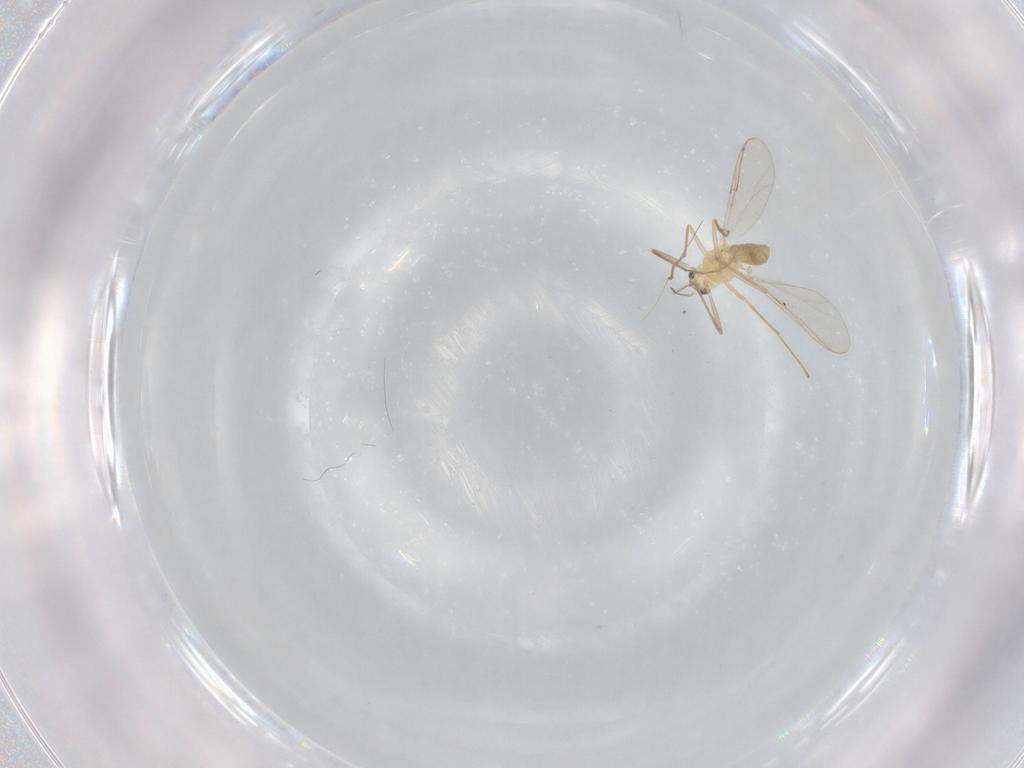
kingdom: Animalia
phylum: Arthropoda
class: Insecta
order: Diptera
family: Chironomidae
